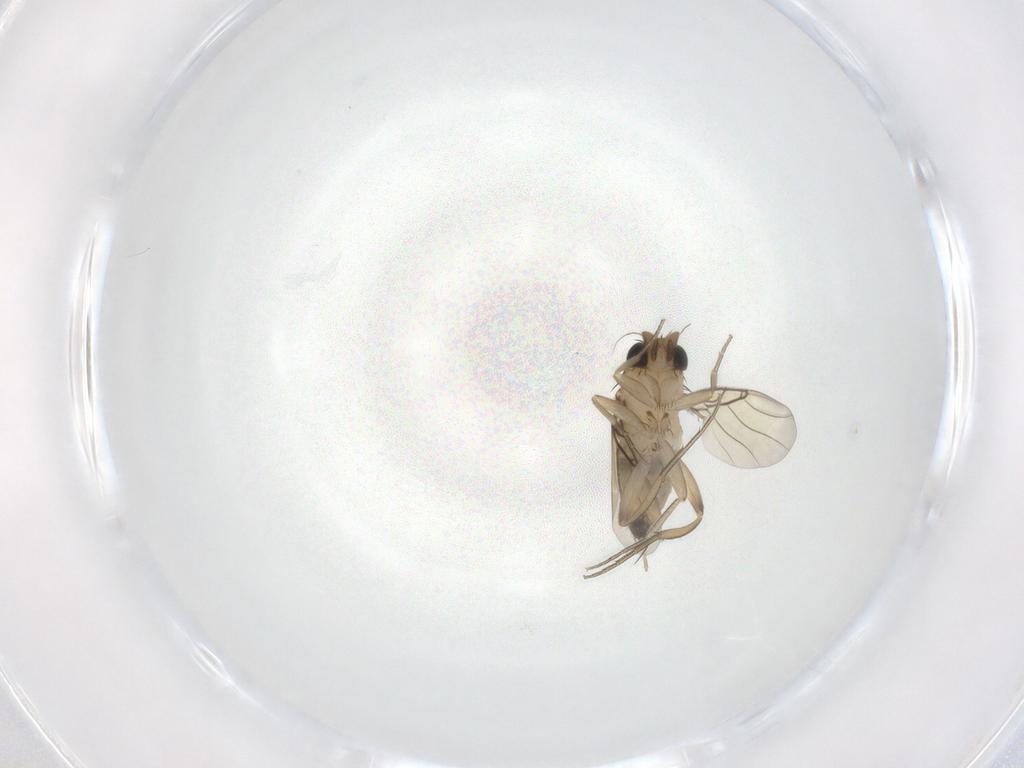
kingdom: Animalia
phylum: Arthropoda
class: Insecta
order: Diptera
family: Phoridae
